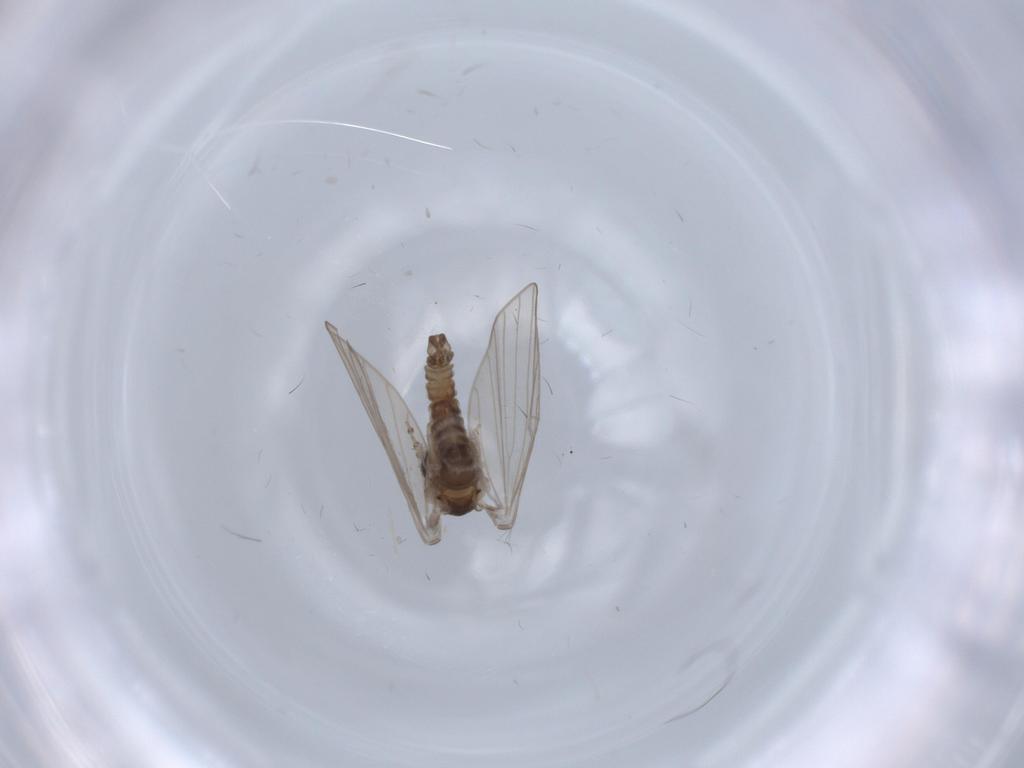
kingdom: Animalia
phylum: Arthropoda
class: Insecta
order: Diptera
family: Psychodidae
